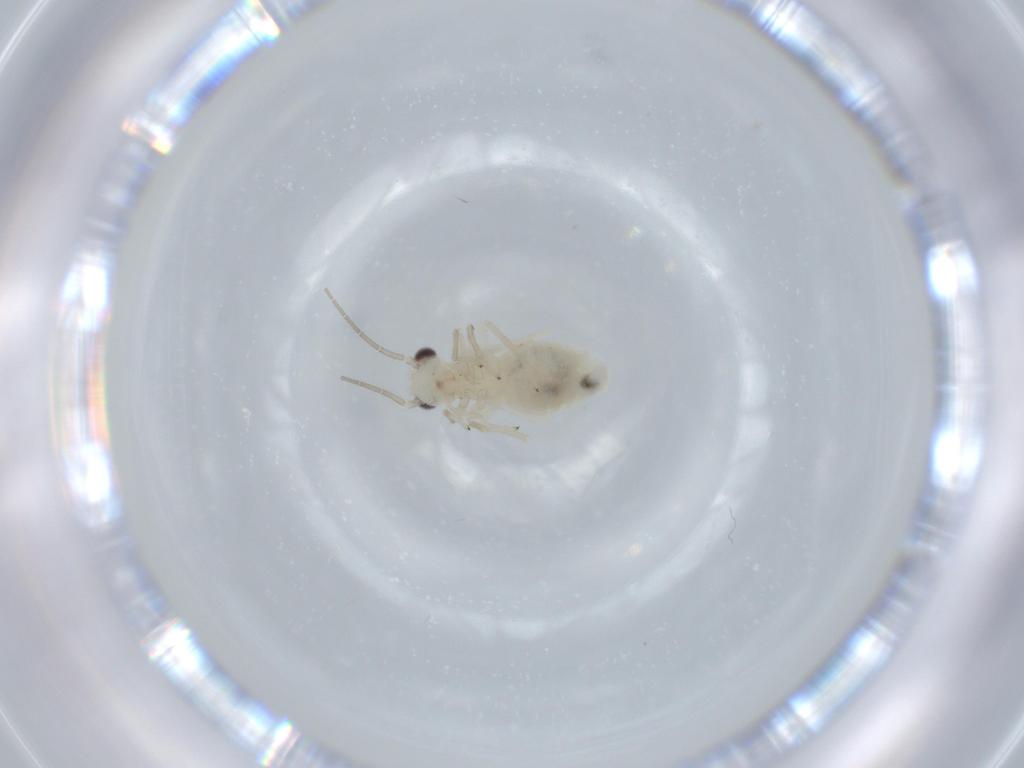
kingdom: Animalia
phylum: Arthropoda
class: Insecta
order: Psocodea
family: Caeciliusidae
